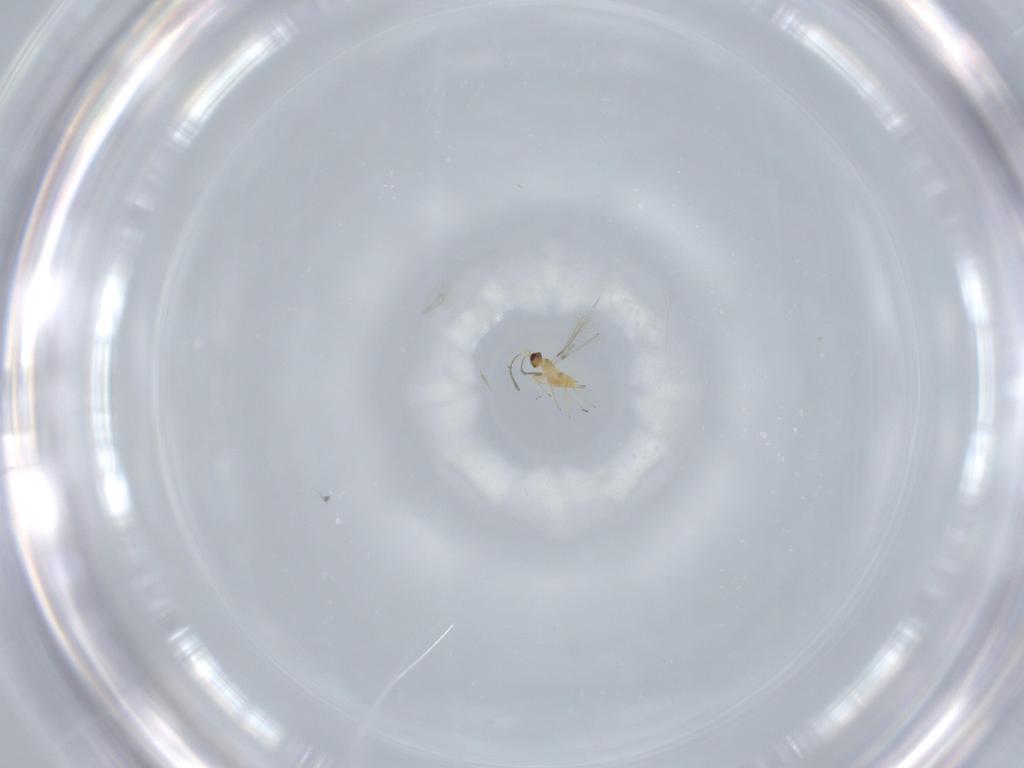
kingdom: Animalia
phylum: Arthropoda
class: Insecta
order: Hymenoptera
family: Mymaridae
